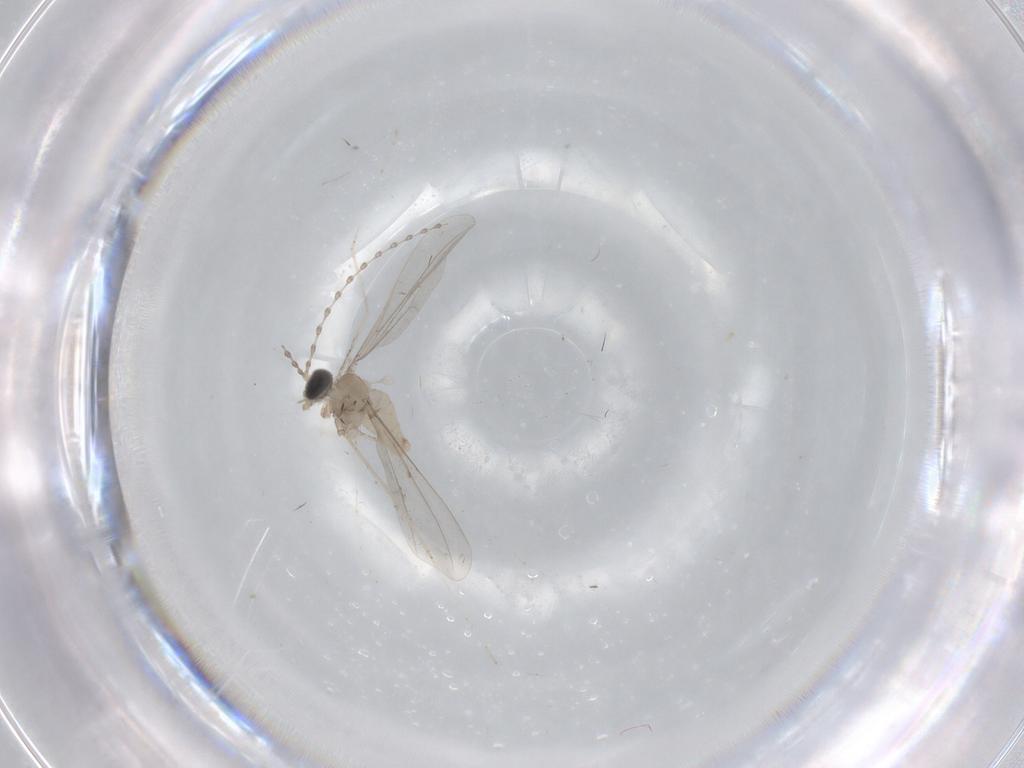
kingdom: Animalia
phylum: Arthropoda
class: Insecta
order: Diptera
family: Cecidomyiidae
